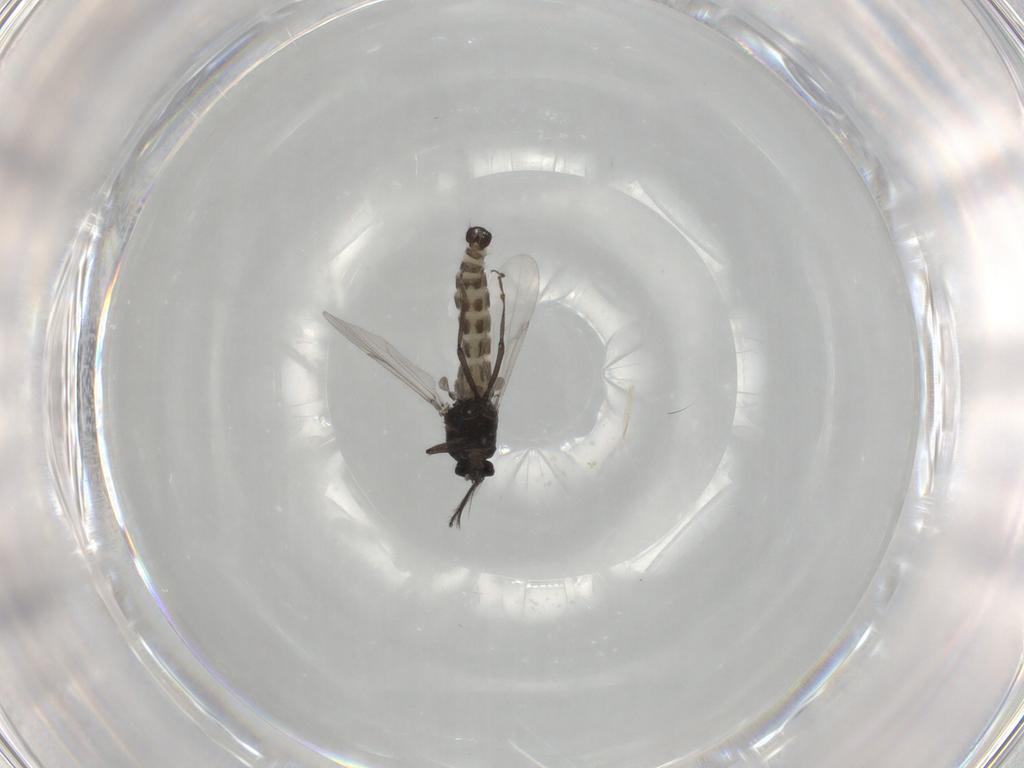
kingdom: Animalia
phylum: Arthropoda
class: Insecta
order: Diptera
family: Ceratopogonidae
